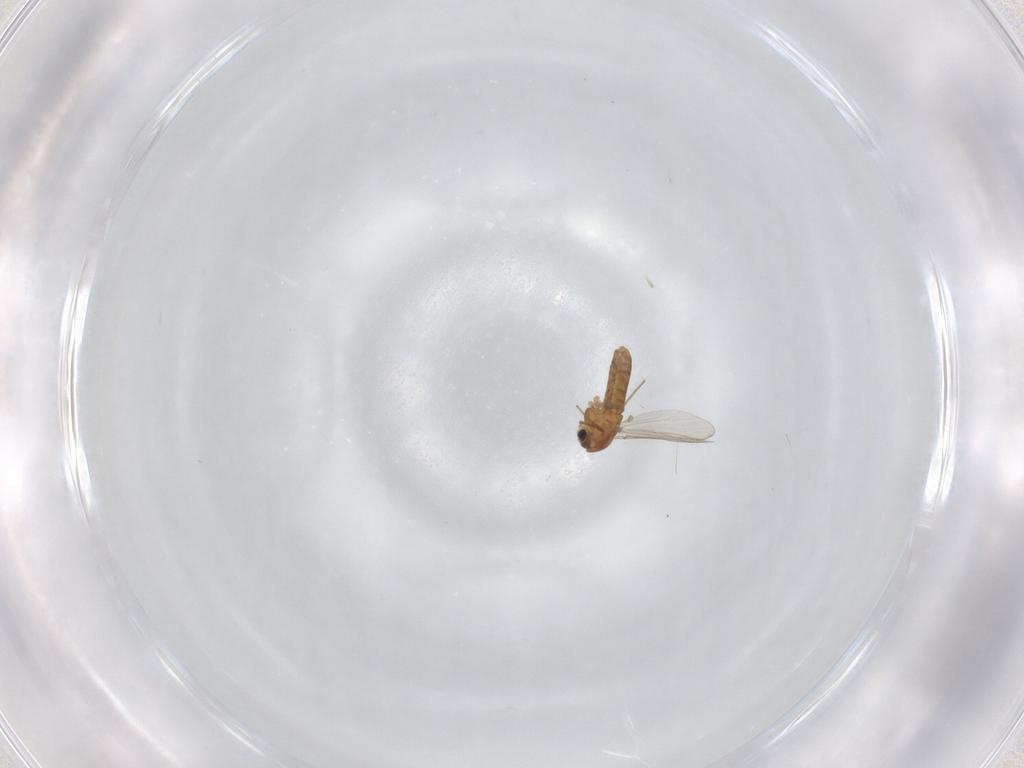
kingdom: Animalia
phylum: Arthropoda
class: Insecta
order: Diptera
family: Chironomidae
